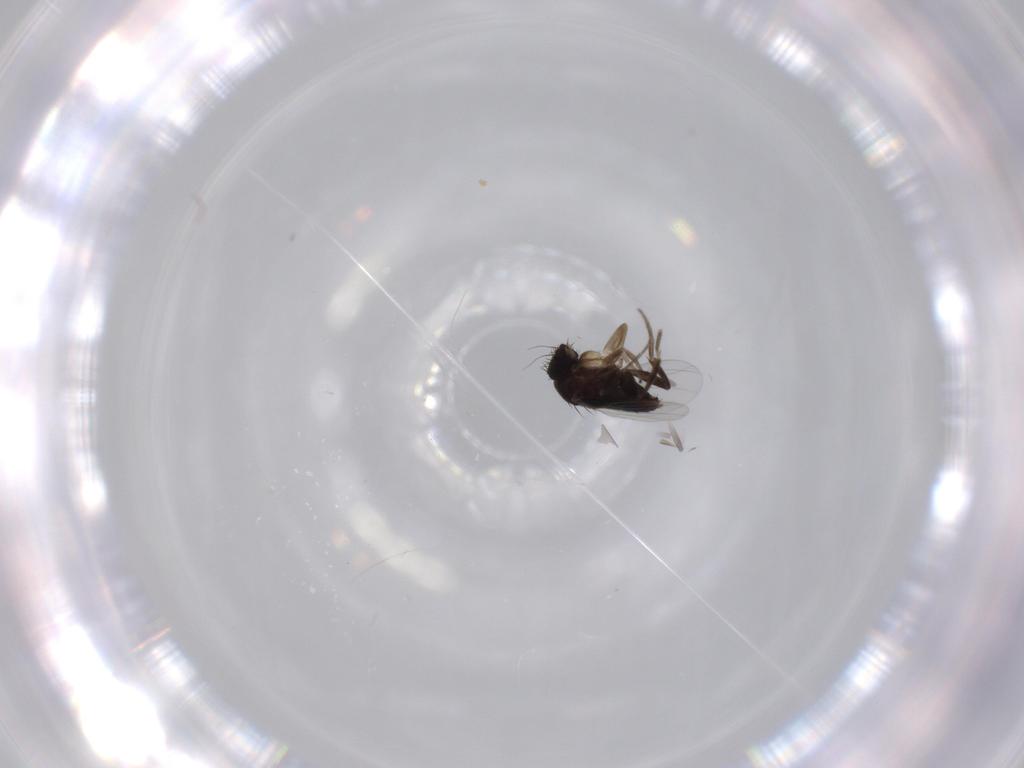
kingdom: Animalia
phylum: Arthropoda
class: Insecta
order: Diptera
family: Phoridae
